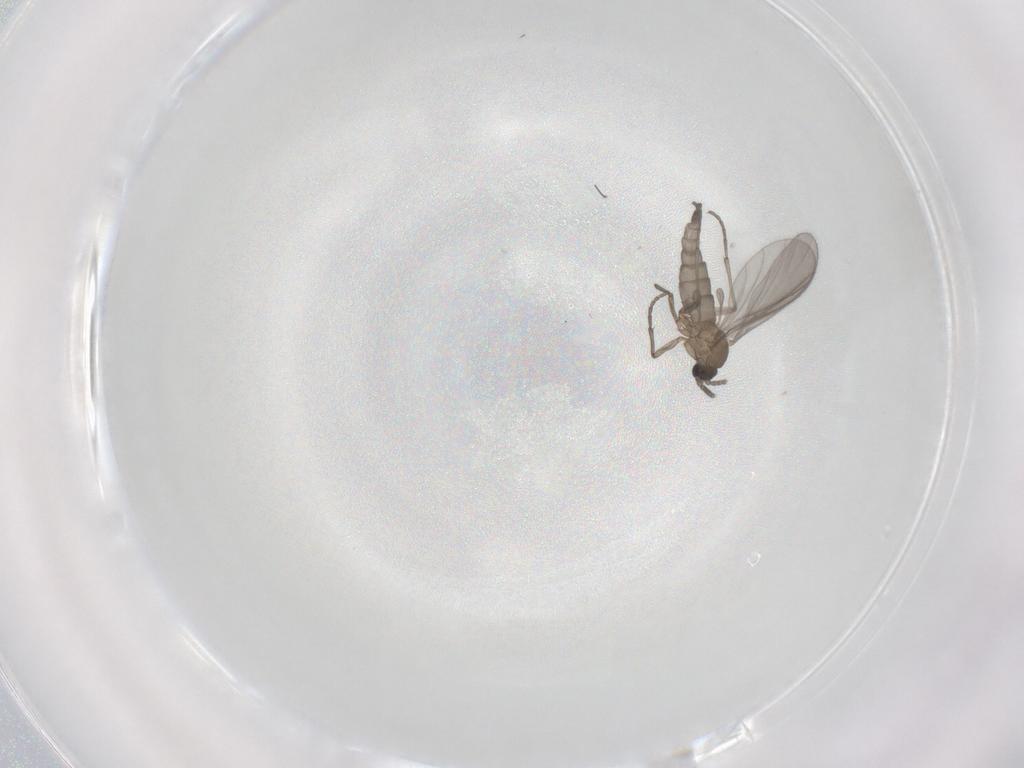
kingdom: Animalia
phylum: Arthropoda
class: Insecta
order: Diptera
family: Sciaridae
